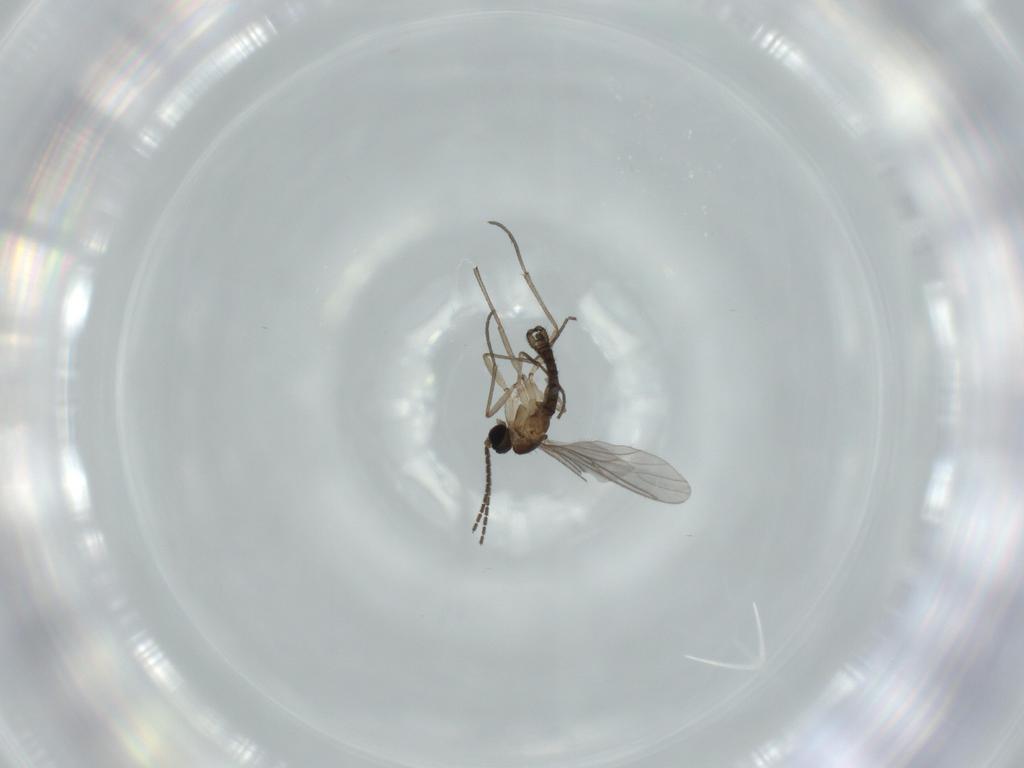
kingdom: Animalia
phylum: Arthropoda
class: Insecta
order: Diptera
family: Sciaridae
